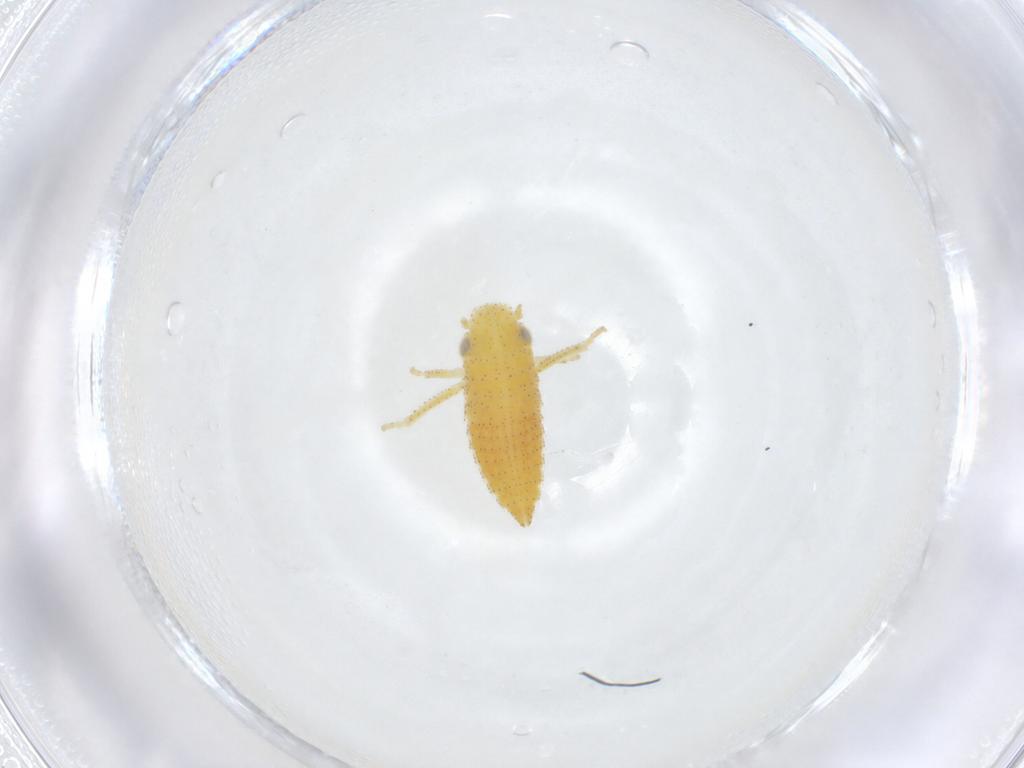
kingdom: Animalia
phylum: Arthropoda
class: Insecta
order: Hemiptera
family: Cicadellidae
